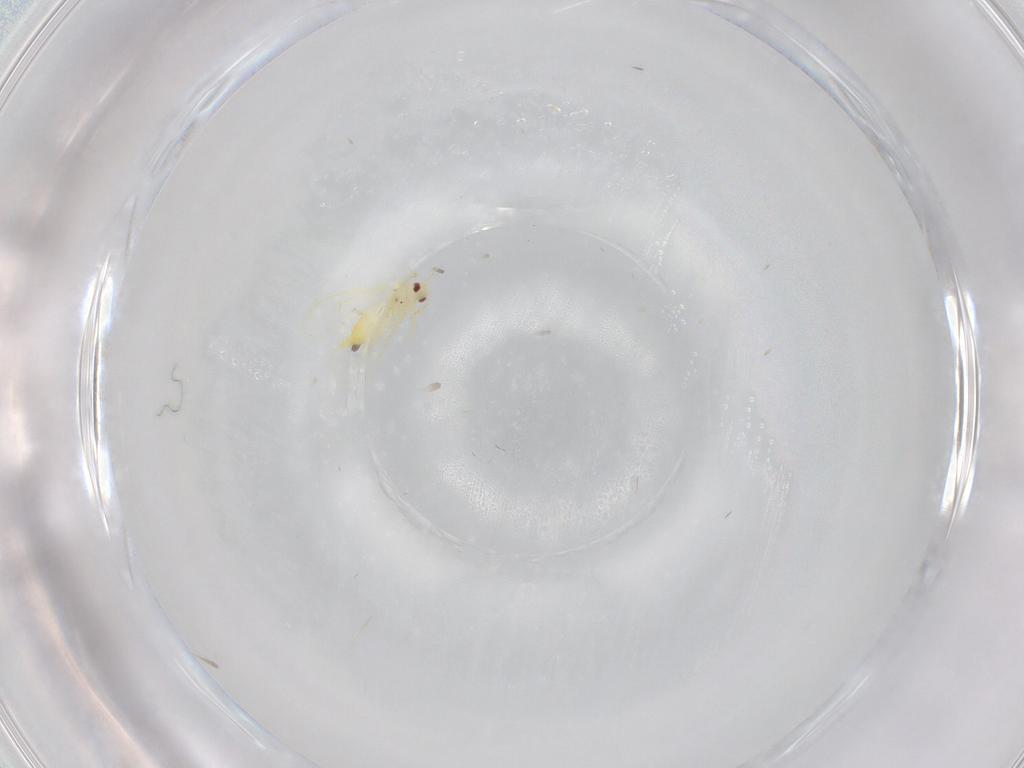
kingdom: Animalia
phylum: Arthropoda
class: Insecta
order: Hemiptera
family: Aleyrodidae
